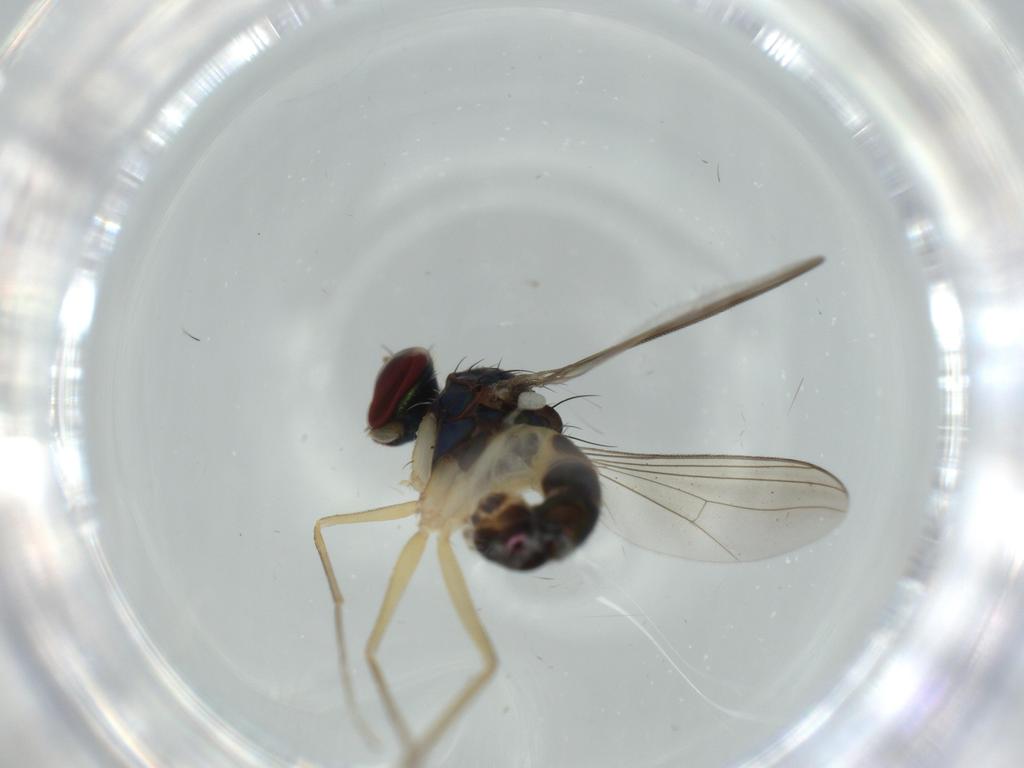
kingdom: Animalia
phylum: Arthropoda
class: Insecta
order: Diptera
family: Dolichopodidae
